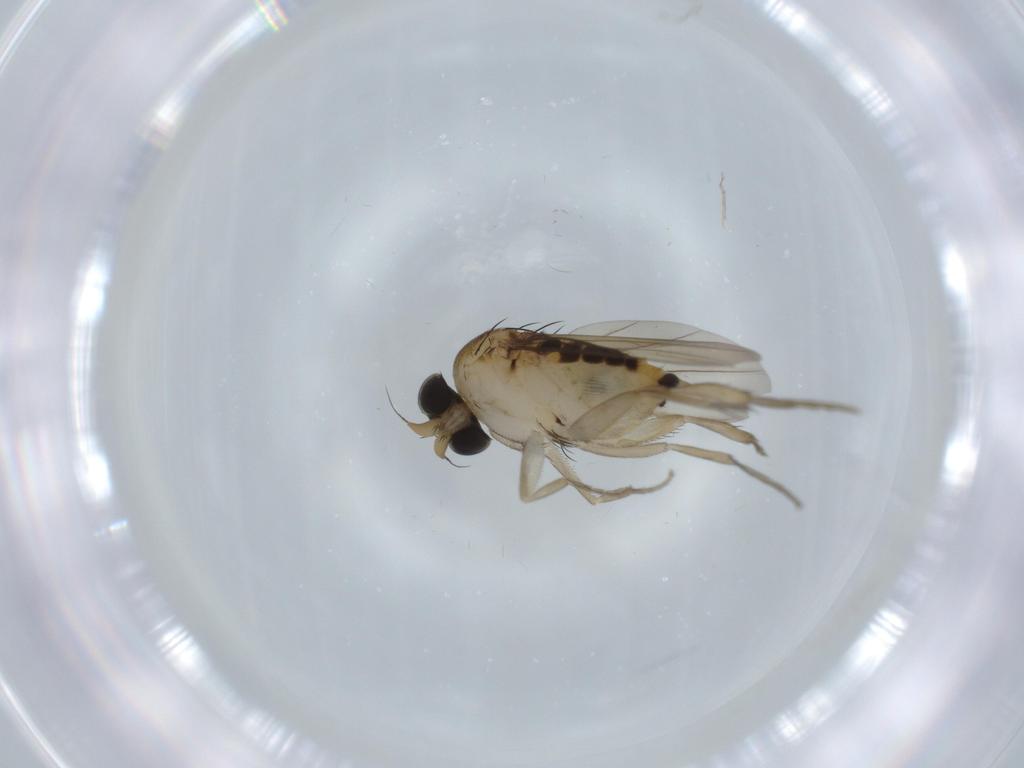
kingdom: Animalia
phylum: Arthropoda
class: Insecta
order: Diptera
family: Phoridae
